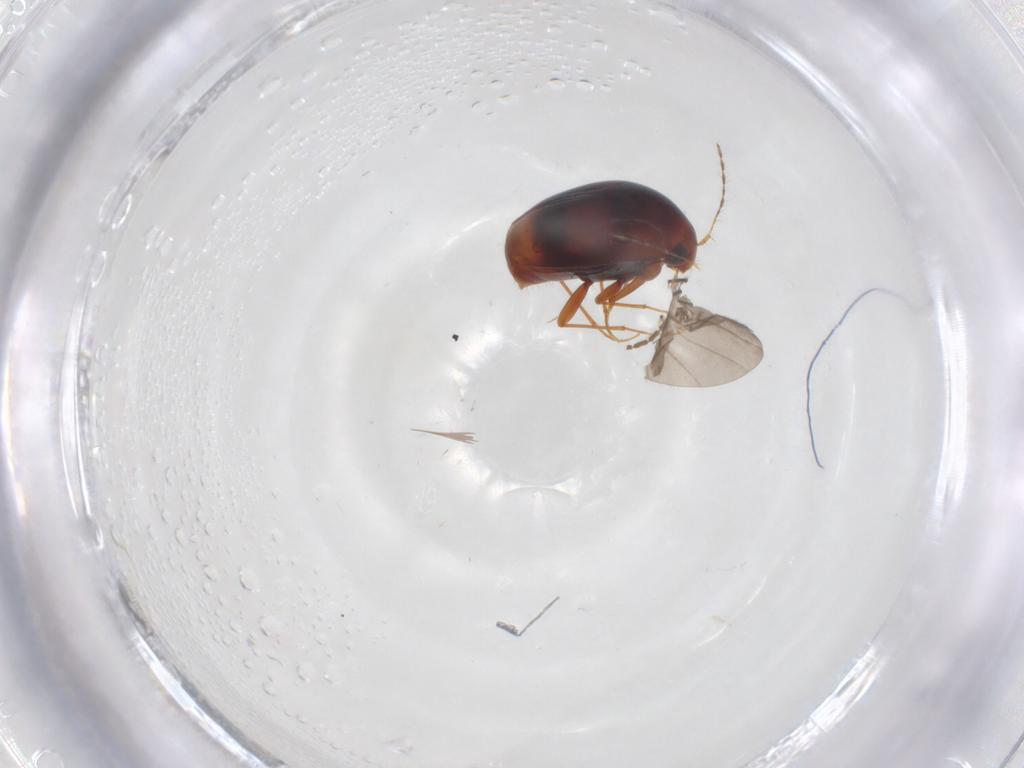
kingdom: Animalia
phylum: Arthropoda
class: Insecta
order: Coleoptera
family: Staphylinidae
